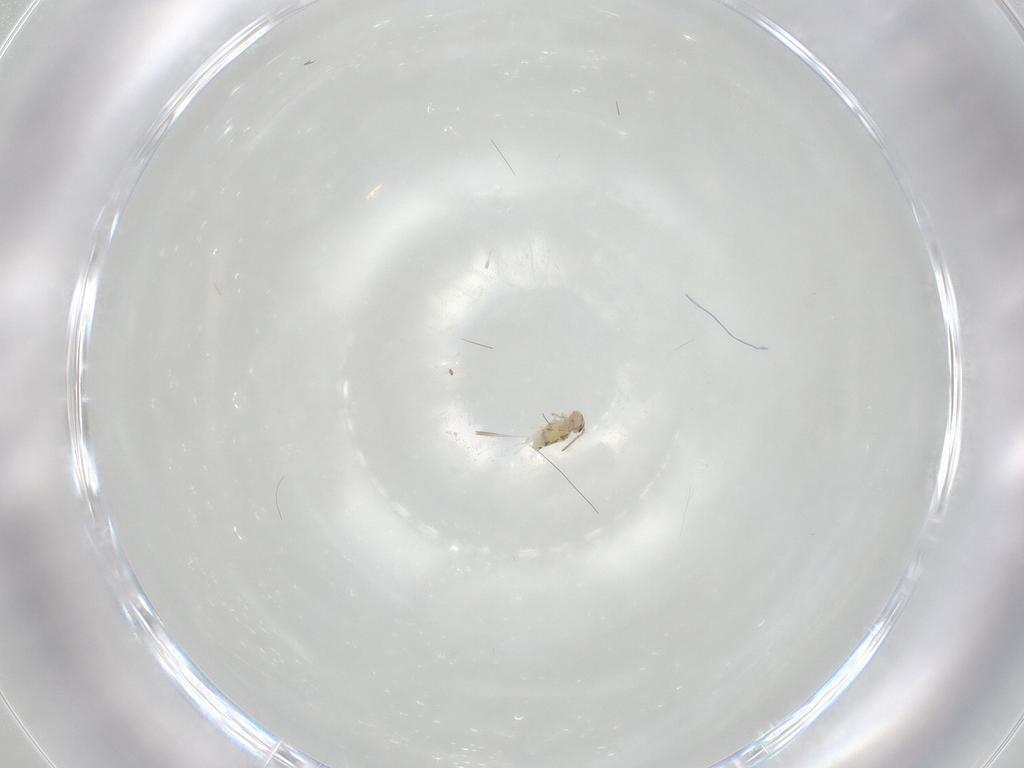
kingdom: Animalia
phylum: Arthropoda
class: Collembola
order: Symphypleona
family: Bourletiellidae
